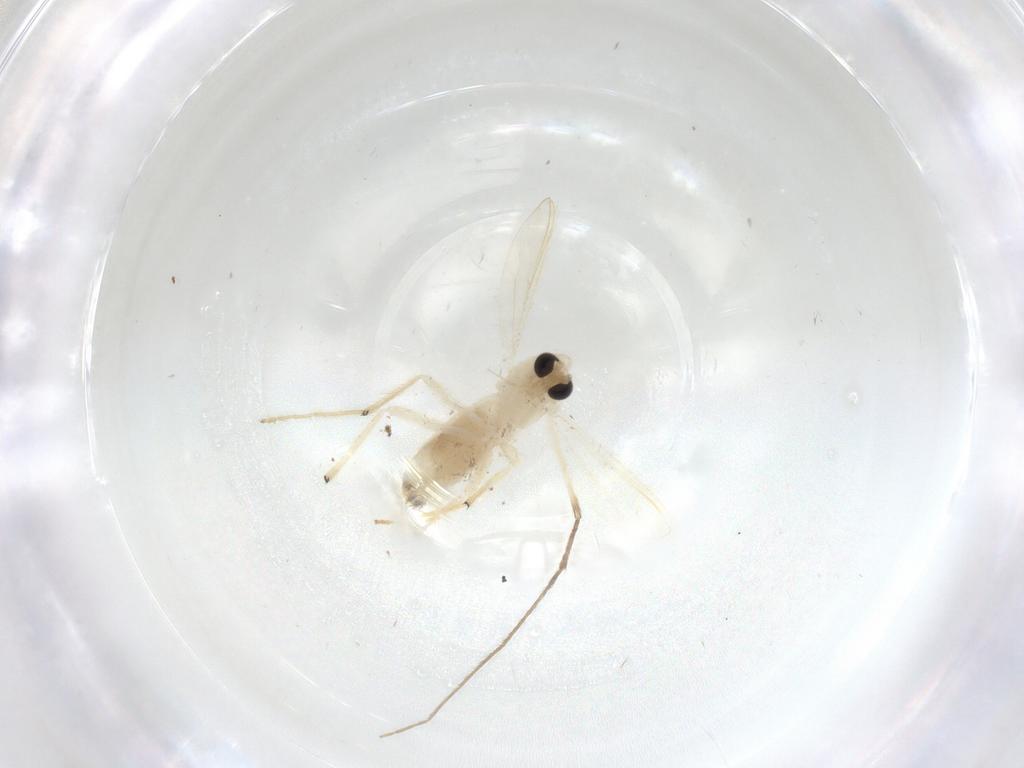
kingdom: Animalia
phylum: Arthropoda
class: Insecta
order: Diptera
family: Chironomidae
